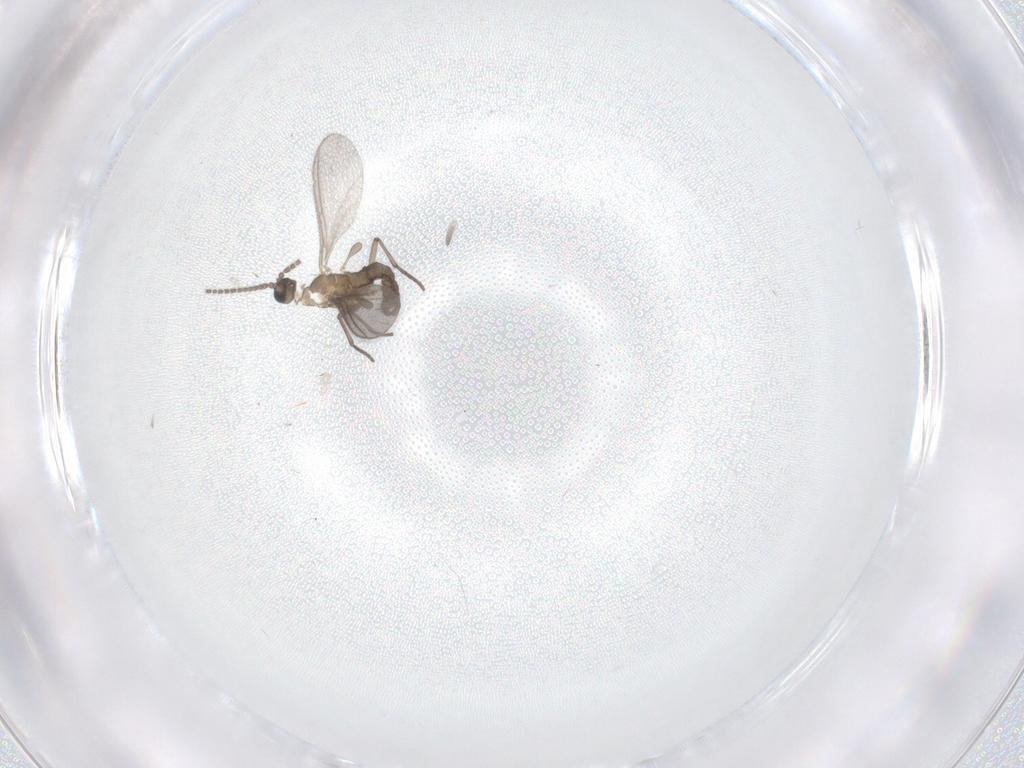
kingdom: Animalia
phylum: Arthropoda
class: Insecta
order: Diptera
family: Sciaridae
